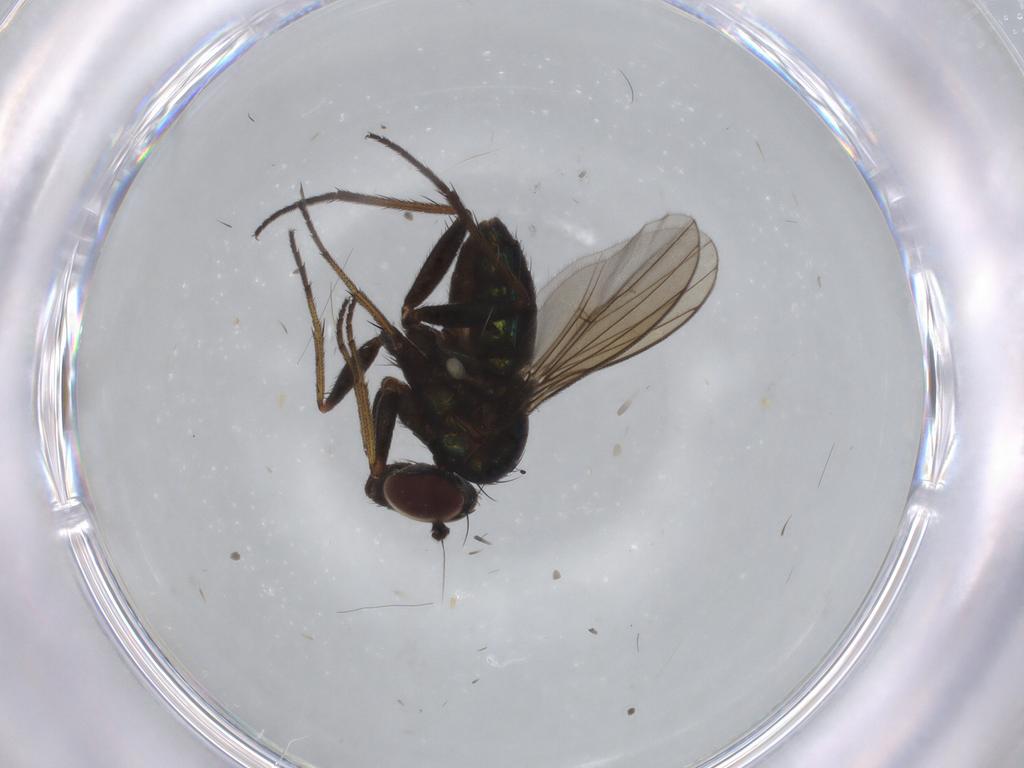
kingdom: Animalia
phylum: Arthropoda
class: Insecta
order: Diptera
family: Dolichopodidae
